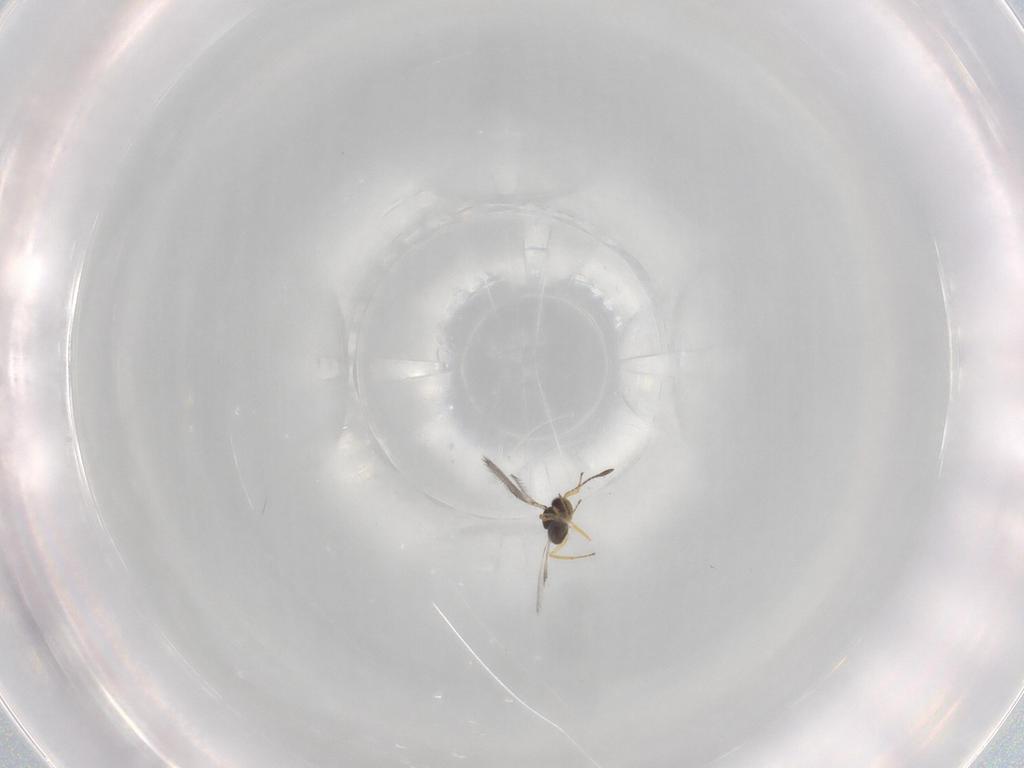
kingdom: Animalia
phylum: Arthropoda
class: Insecta
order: Hymenoptera
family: Mymaridae
